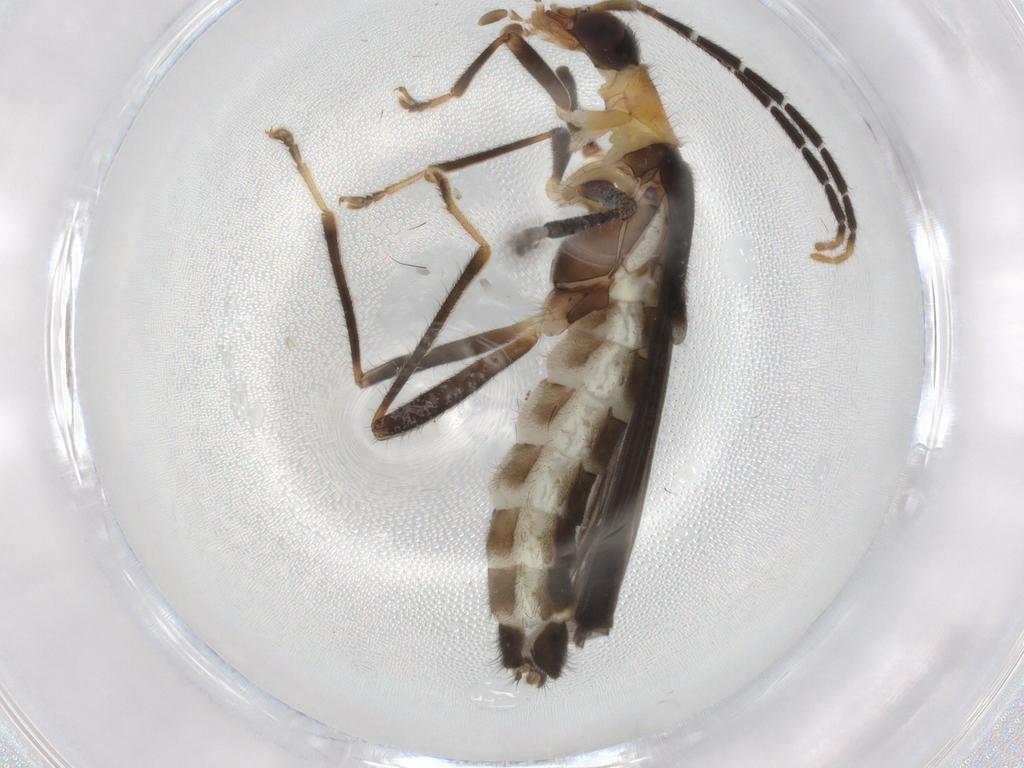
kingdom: Animalia
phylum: Arthropoda
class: Insecta
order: Coleoptera
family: Cantharidae
